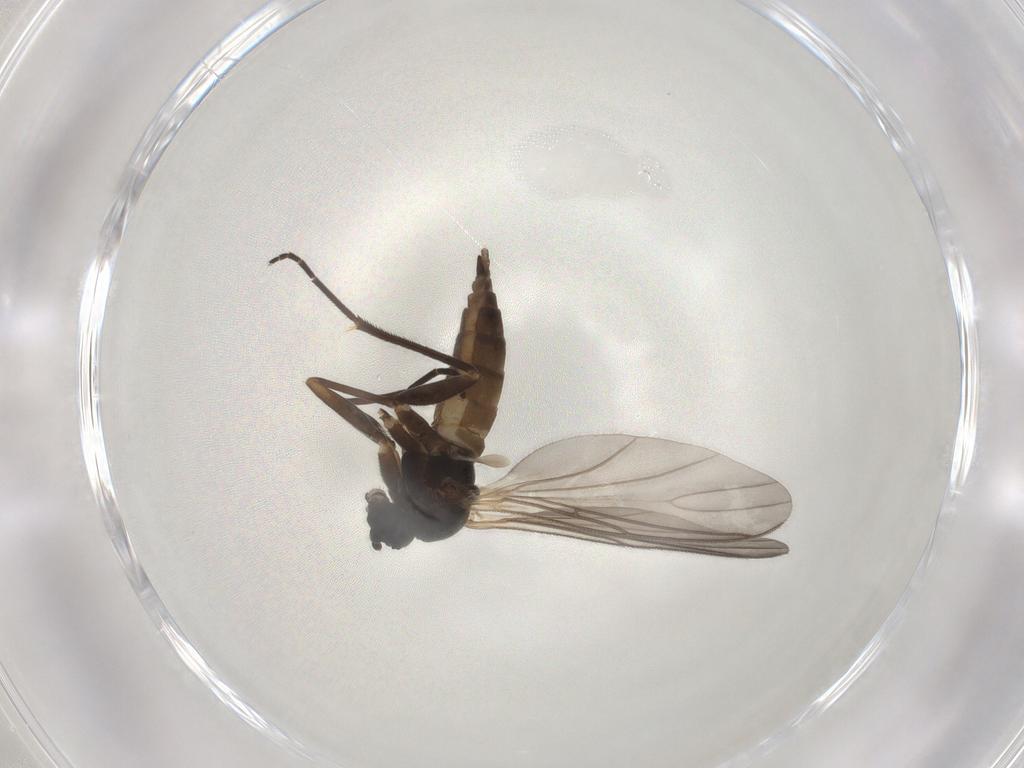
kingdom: Animalia
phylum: Arthropoda
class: Insecta
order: Diptera
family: Sciaridae
